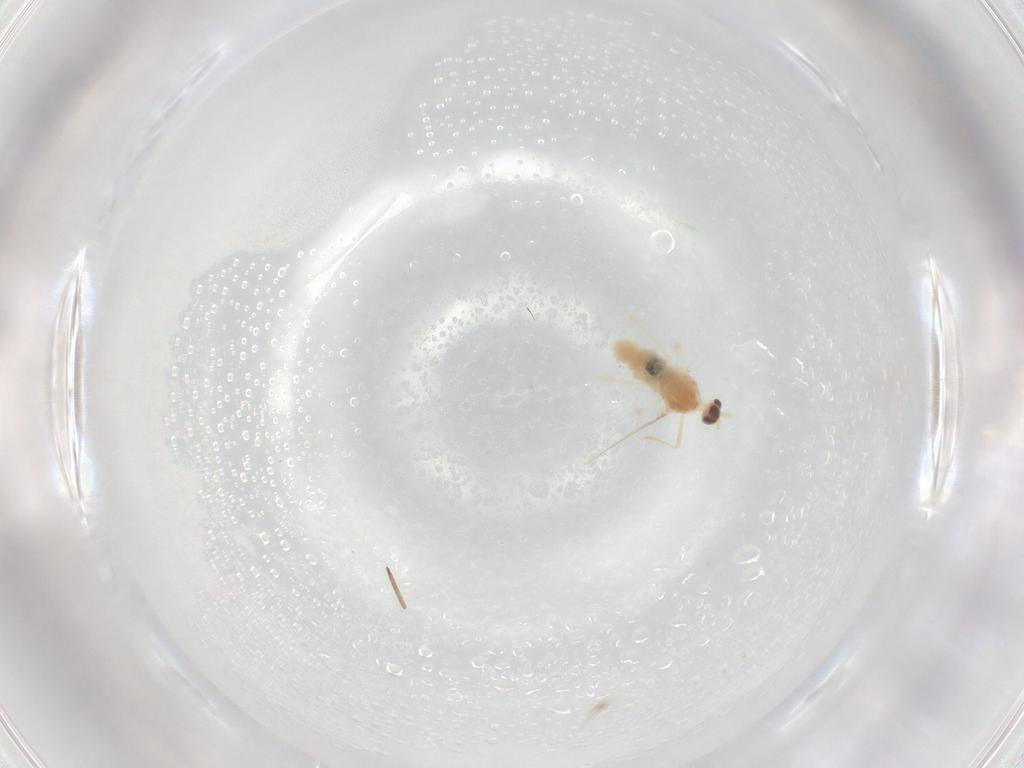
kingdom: Animalia
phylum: Arthropoda
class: Insecta
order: Diptera
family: Cecidomyiidae
